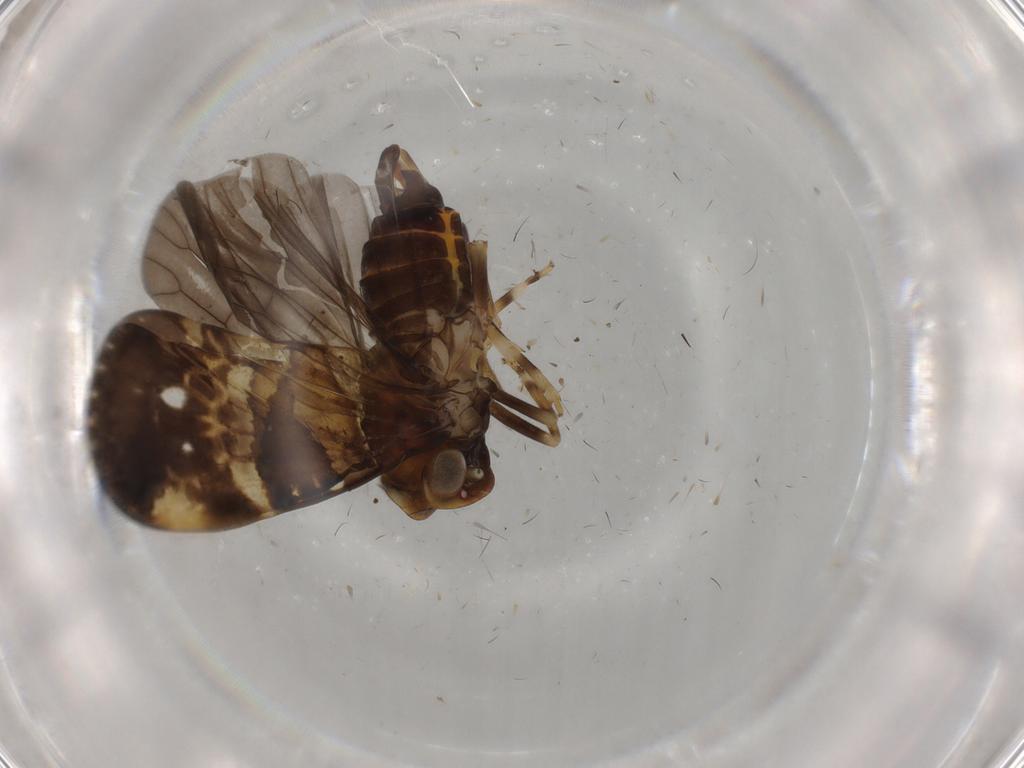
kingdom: Animalia
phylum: Arthropoda
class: Insecta
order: Hemiptera
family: Cixiidae
